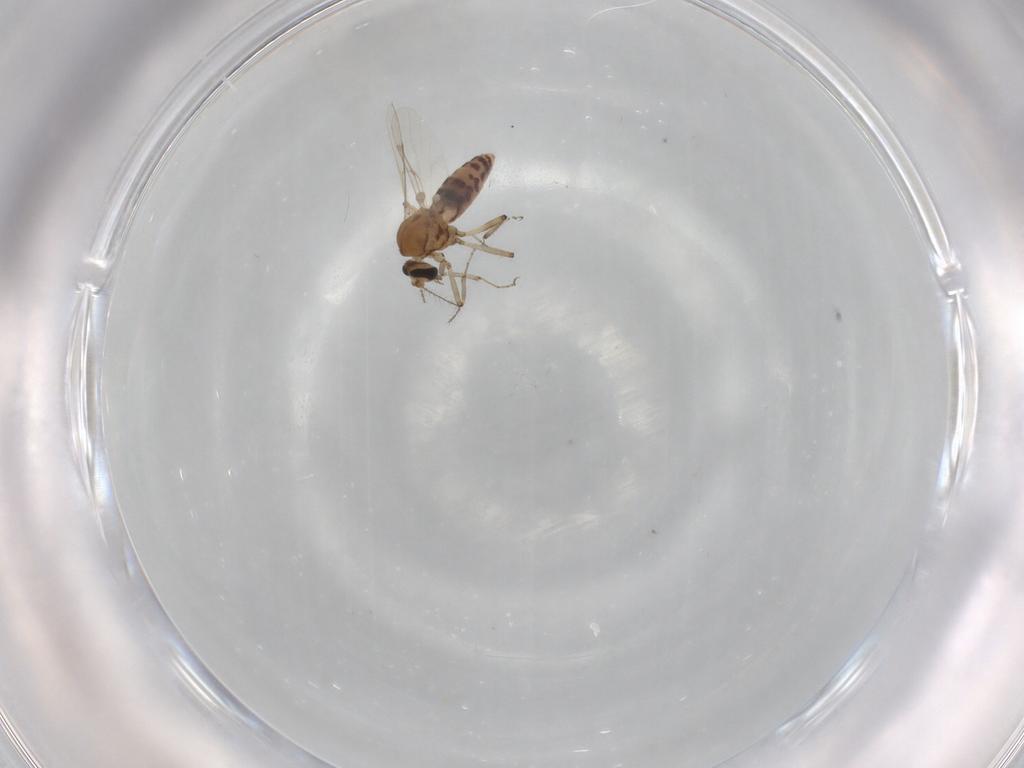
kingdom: Animalia
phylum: Arthropoda
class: Insecta
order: Diptera
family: Ceratopogonidae
